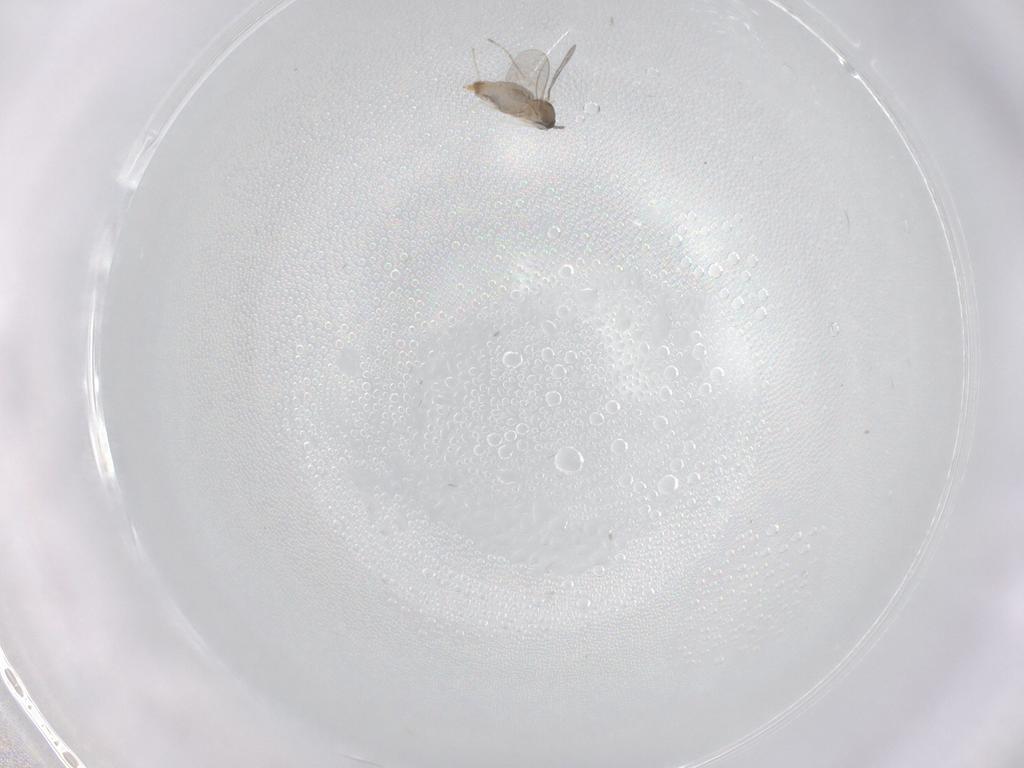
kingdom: Animalia
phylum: Arthropoda
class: Insecta
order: Diptera
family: Cecidomyiidae
